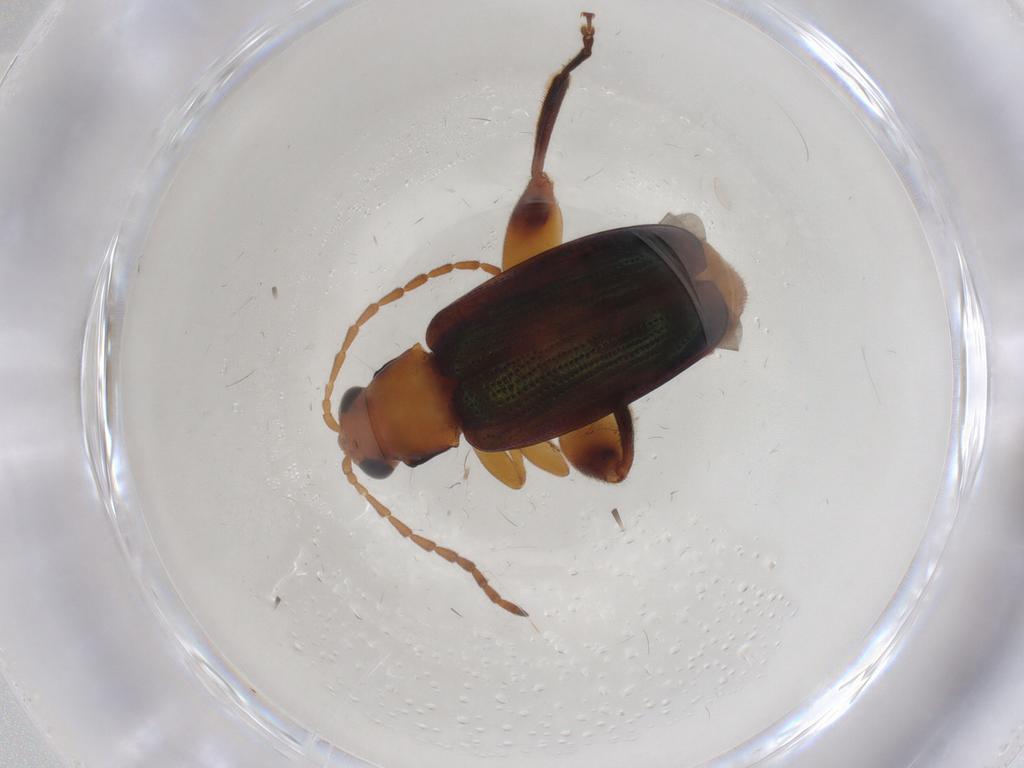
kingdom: Animalia
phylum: Arthropoda
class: Insecta
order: Coleoptera
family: Chrysomelidae
